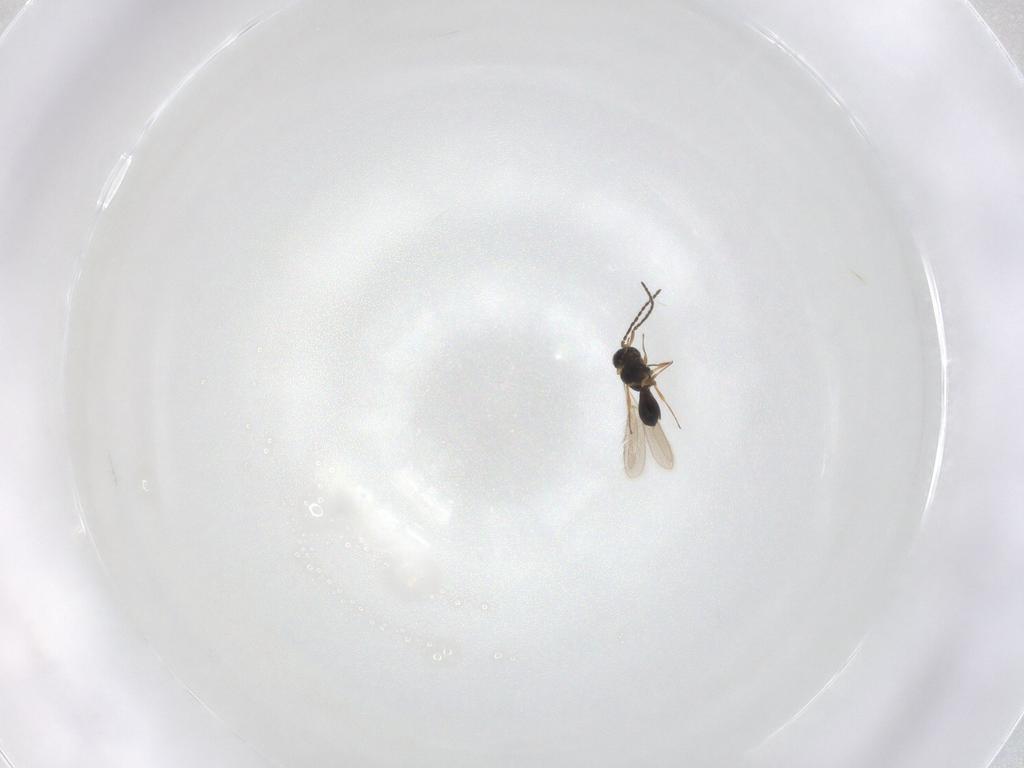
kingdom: Animalia
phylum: Arthropoda
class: Insecta
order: Hymenoptera
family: Scelionidae
